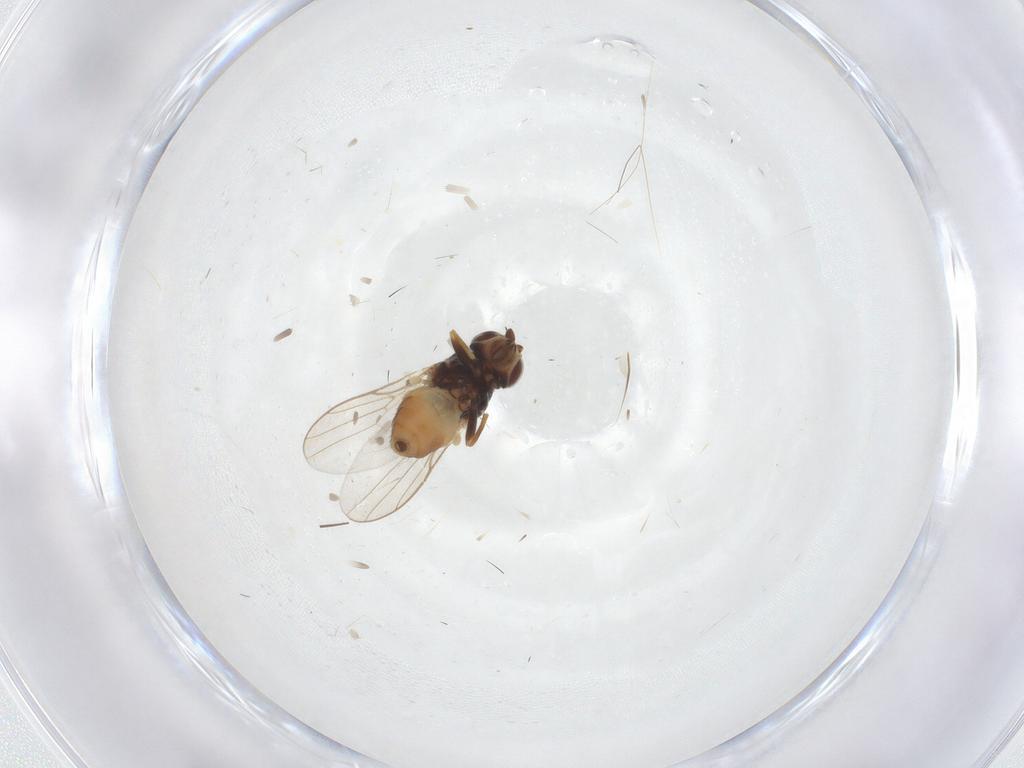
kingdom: Animalia
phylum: Arthropoda
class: Insecta
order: Diptera
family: Chloropidae
